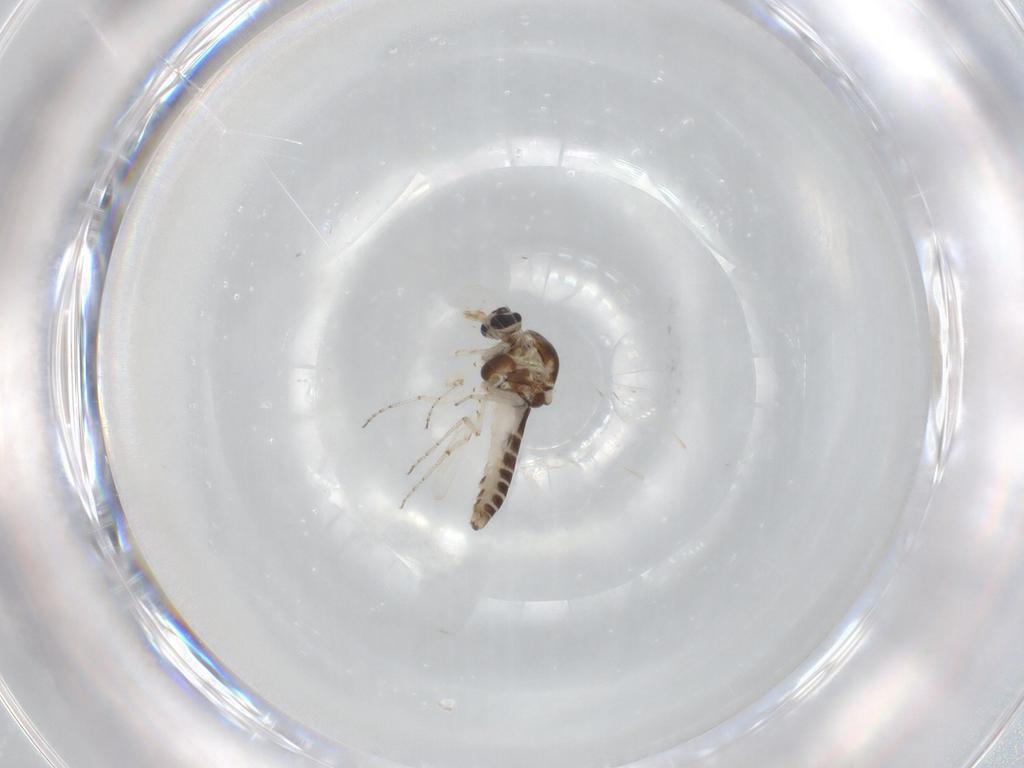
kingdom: Animalia
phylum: Arthropoda
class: Insecta
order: Diptera
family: Ceratopogonidae
